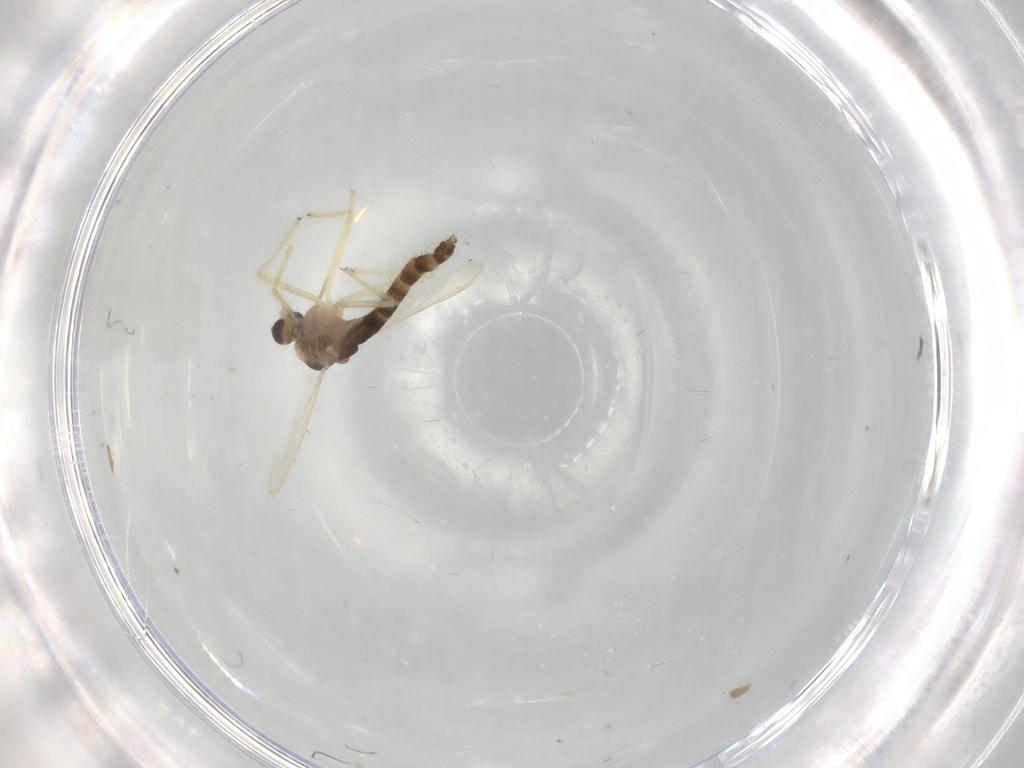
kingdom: Animalia
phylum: Arthropoda
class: Insecta
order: Diptera
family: Chironomidae
